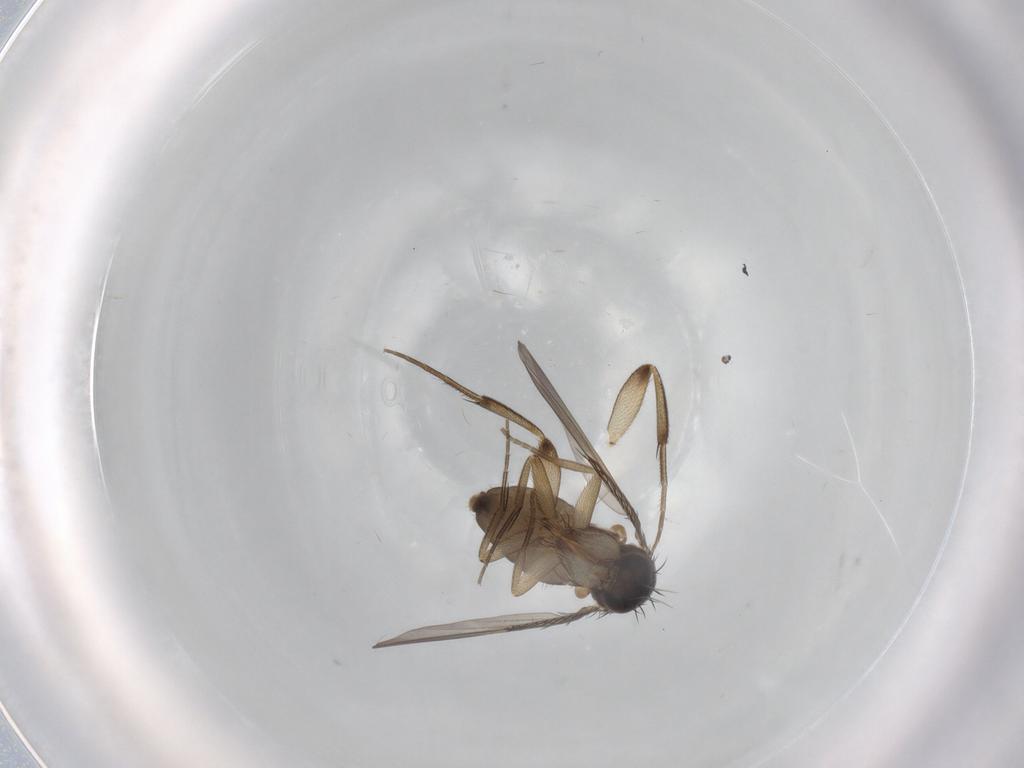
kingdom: Animalia
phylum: Arthropoda
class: Insecta
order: Diptera
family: Phoridae
